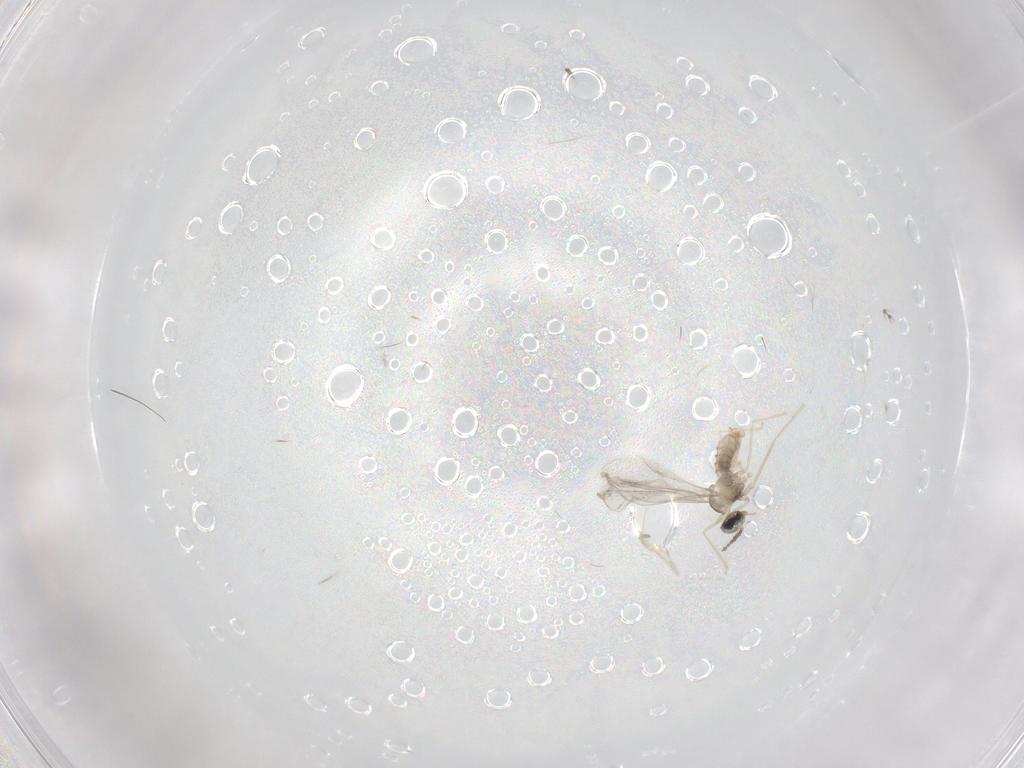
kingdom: Animalia
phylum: Arthropoda
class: Insecta
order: Diptera
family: Cecidomyiidae
